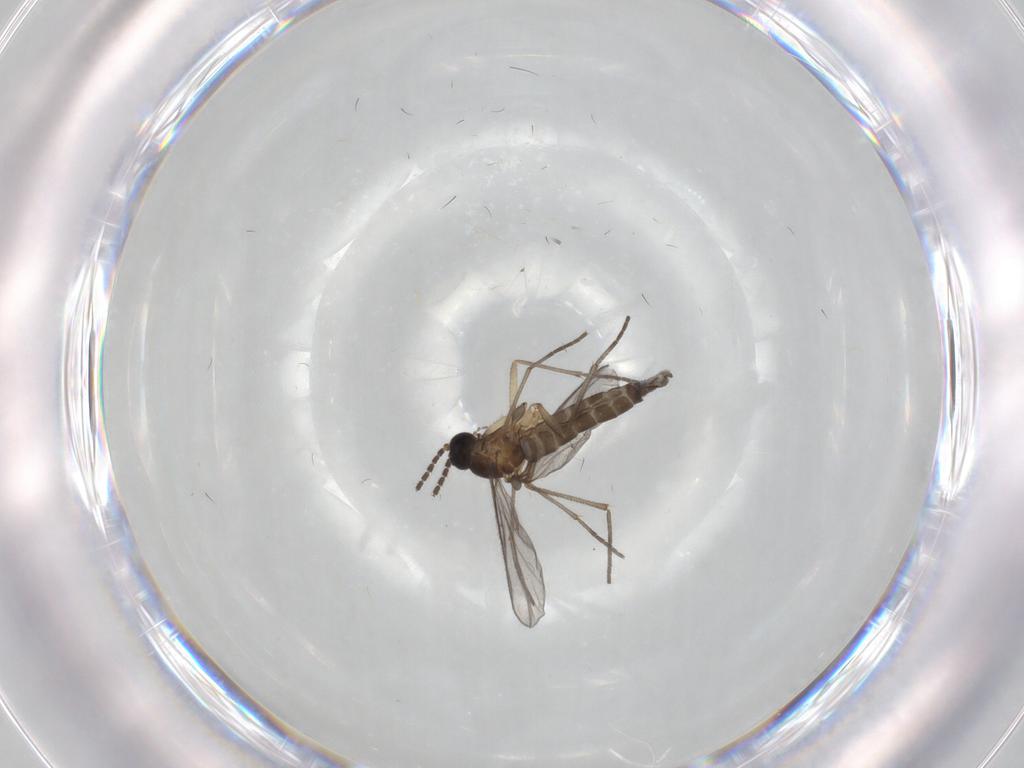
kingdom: Animalia
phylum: Arthropoda
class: Insecta
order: Diptera
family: Sciaridae
